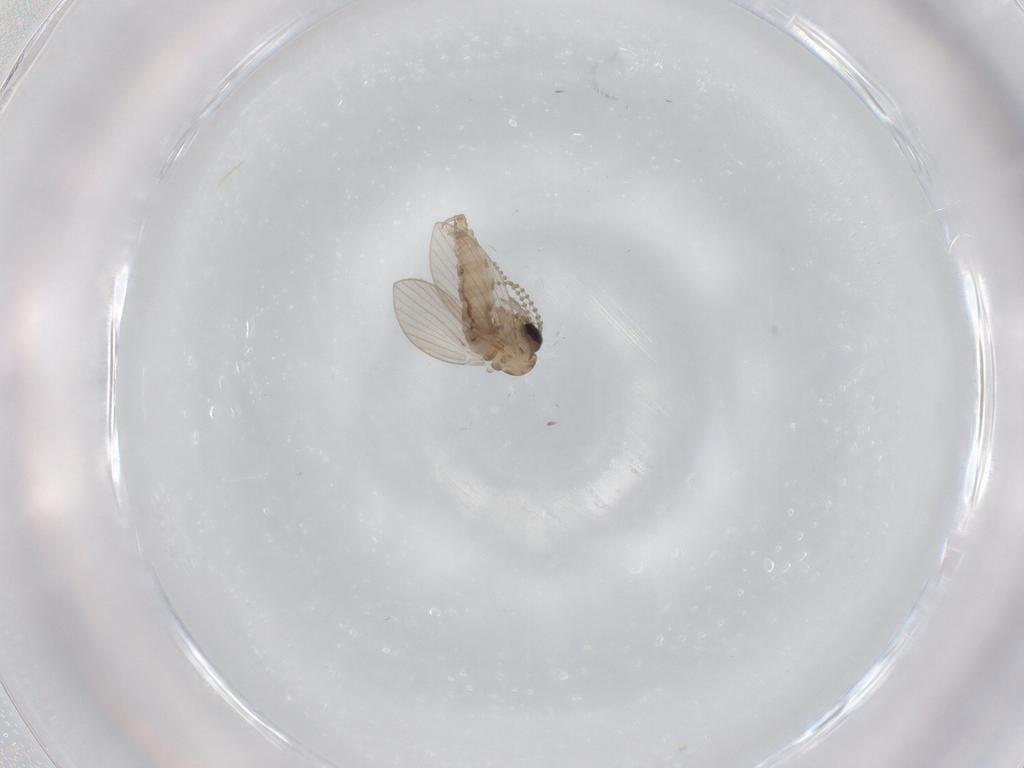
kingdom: Animalia
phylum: Arthropoda
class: Insecta
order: Diptera
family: Psychodidae
